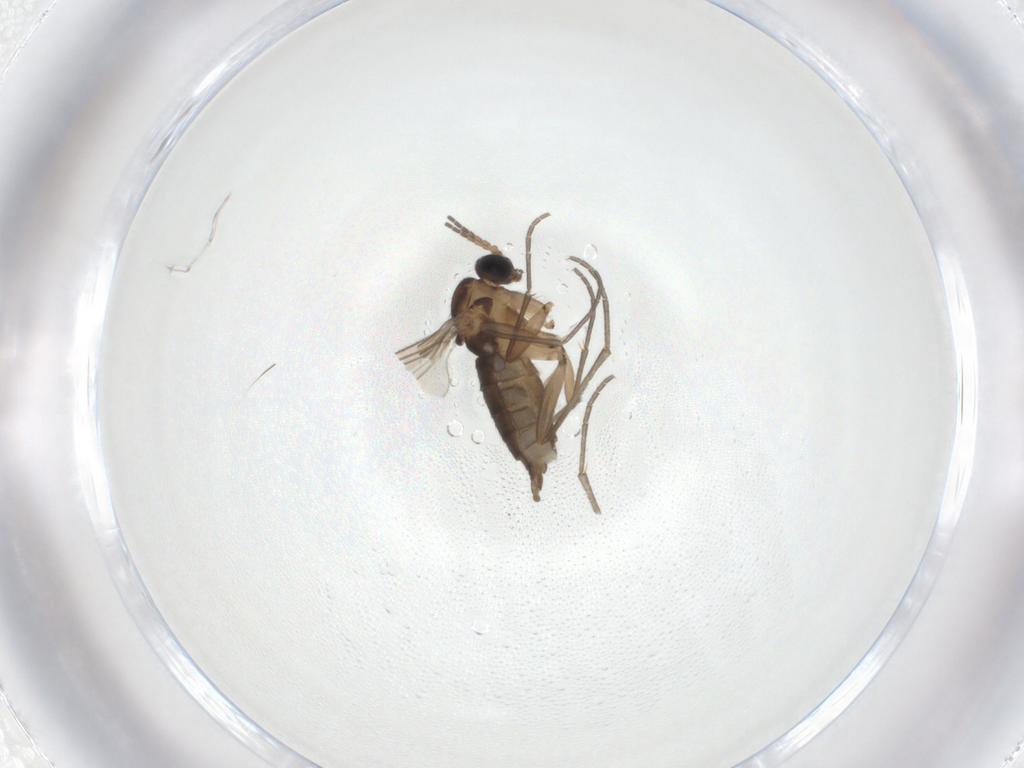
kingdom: Animalia
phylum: Arthropoda
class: Insecta
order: Diptera
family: Sciaridae
